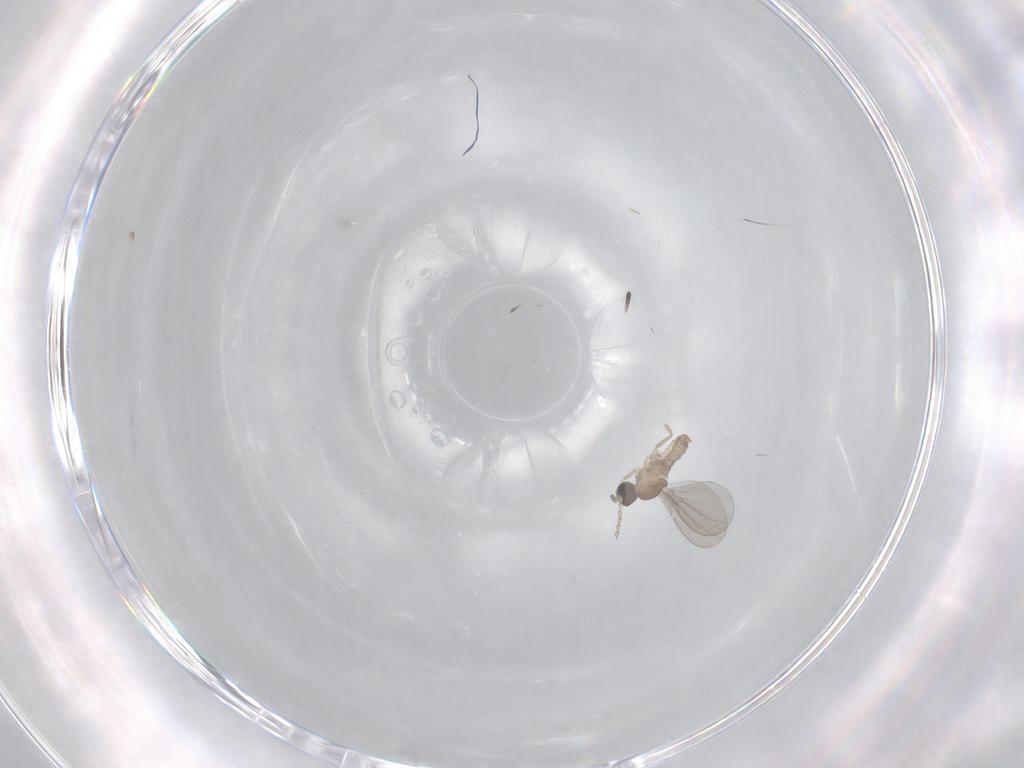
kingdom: Animalia
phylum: Arthropoda
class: Insecta
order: Diptera
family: Cecidomyiidae
